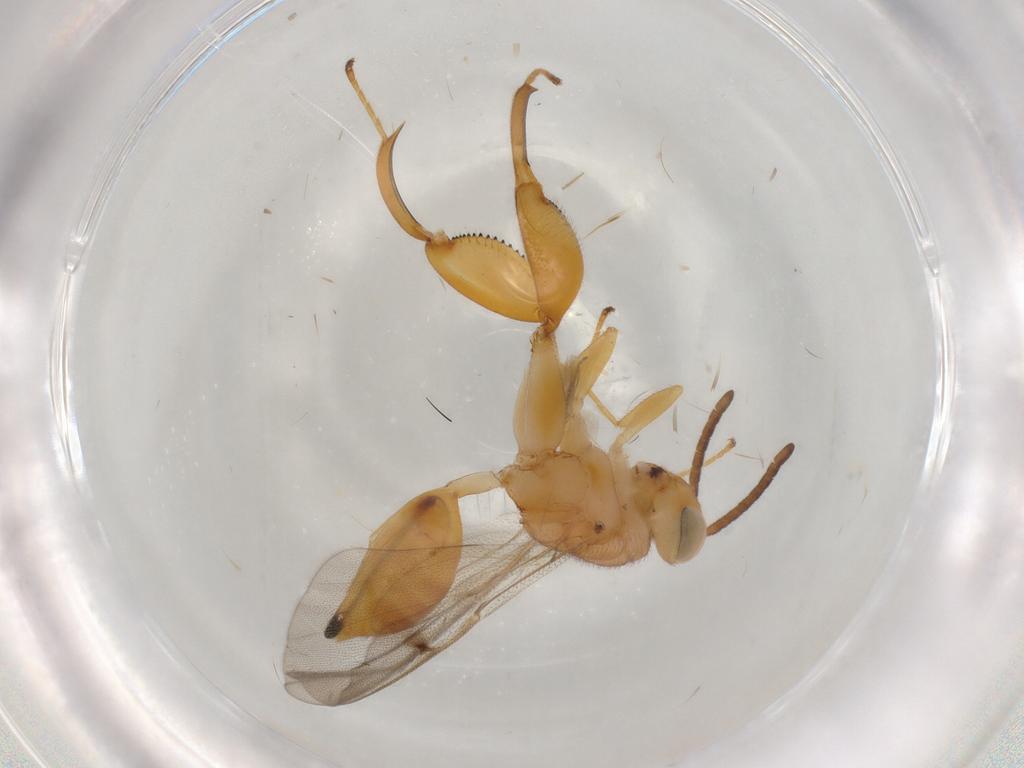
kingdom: Animalia
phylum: Arthropoda
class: Insecta
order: Hymenoptera
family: Chalcididae
